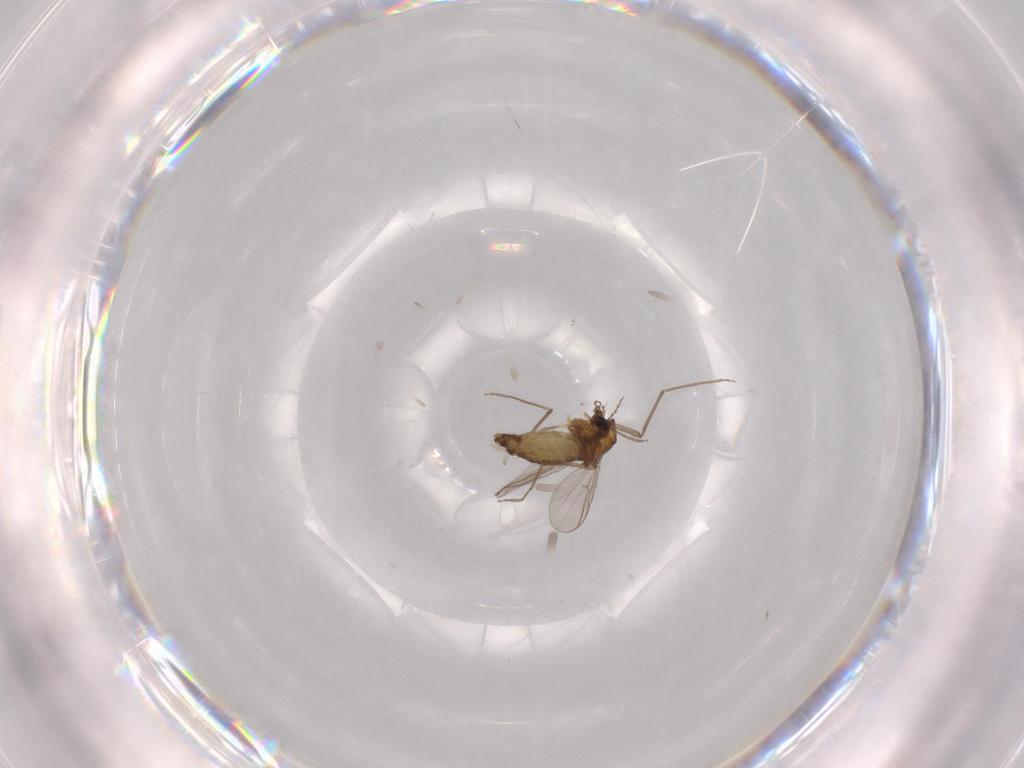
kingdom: Animalia
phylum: Arthropoda
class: Insecta
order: Diptera
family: Chironomidae
